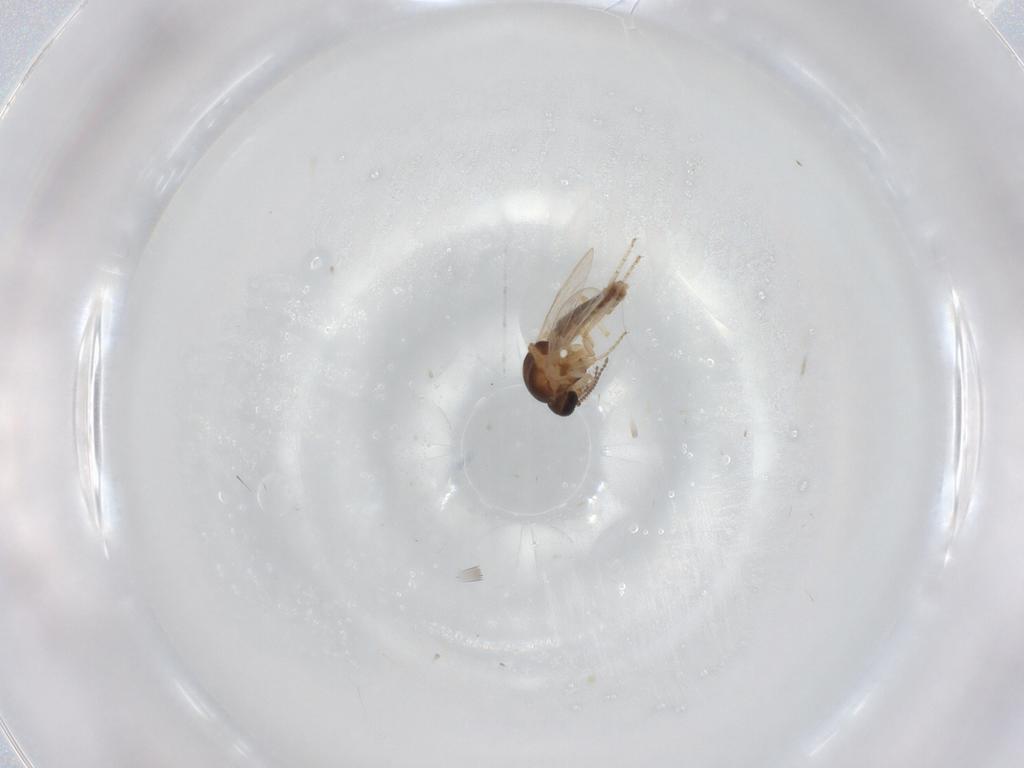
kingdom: Animalia
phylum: Arthropoda
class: Insecta
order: Diptera
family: Ceratopogonidae
